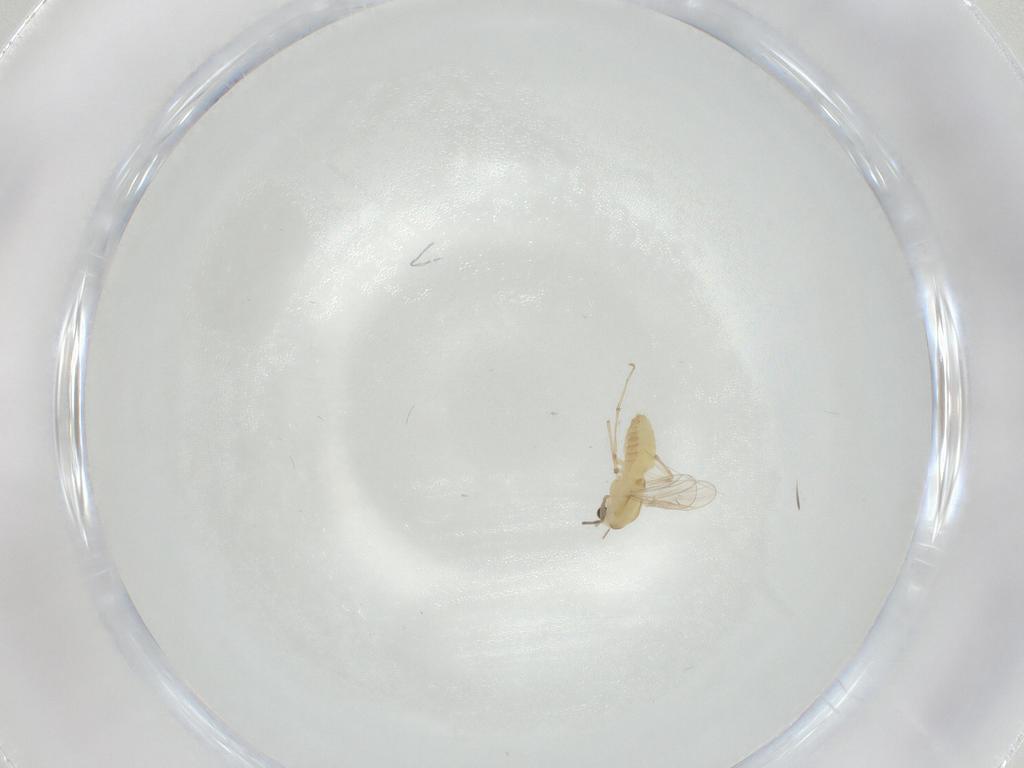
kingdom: Animalia
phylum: Arthropoda
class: Insecta
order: Diptera
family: Chironomidae
